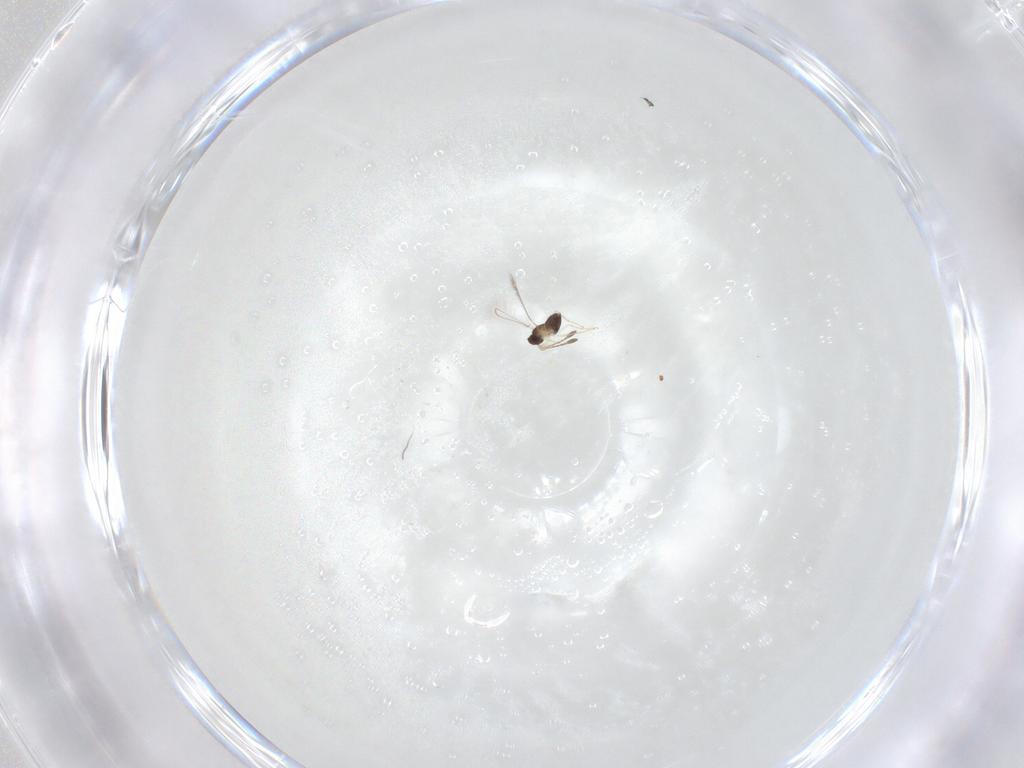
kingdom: Animalia
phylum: Arthropoda
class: Insecta
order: Hymenoptera
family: Mymaridae
